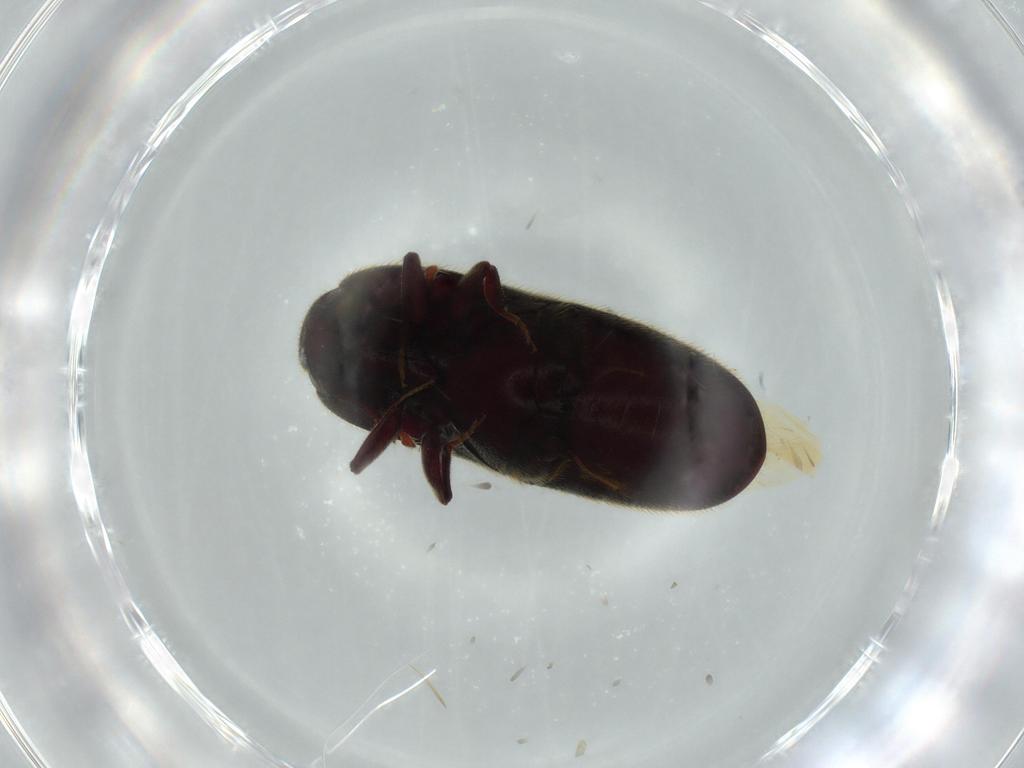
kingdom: Animalia
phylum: Arthropoda
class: Insecta
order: Coleoptera
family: Throscidae
